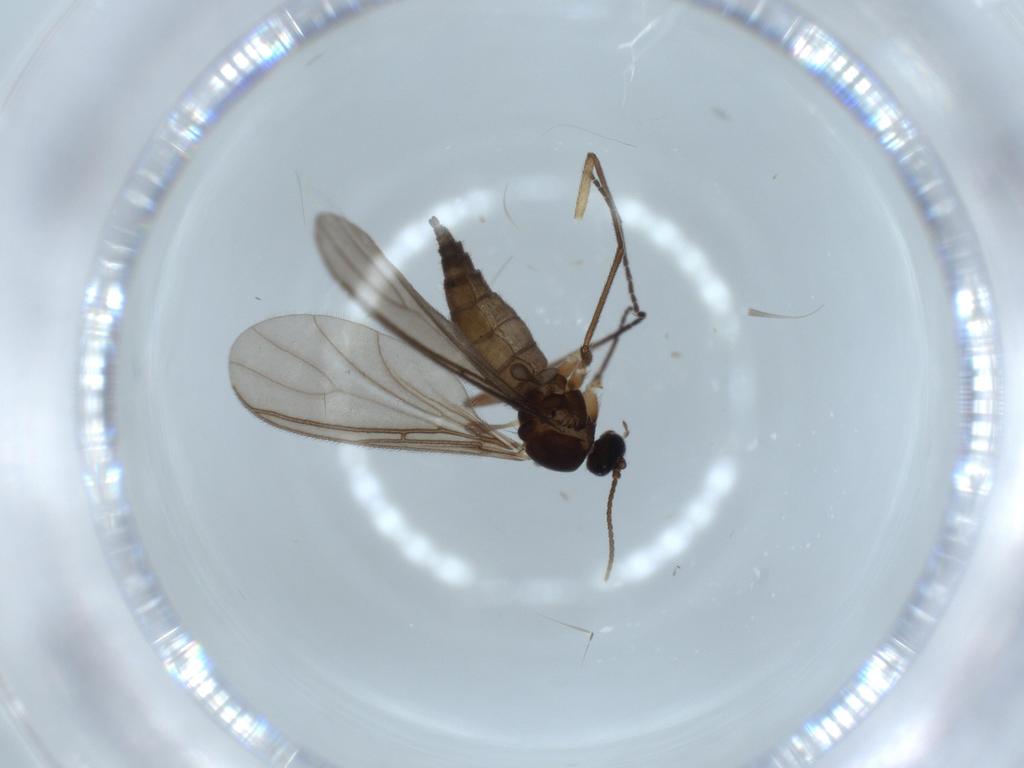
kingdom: Animalia
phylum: Arthropoda
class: Insecta
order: Diptera
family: Sciaridae
